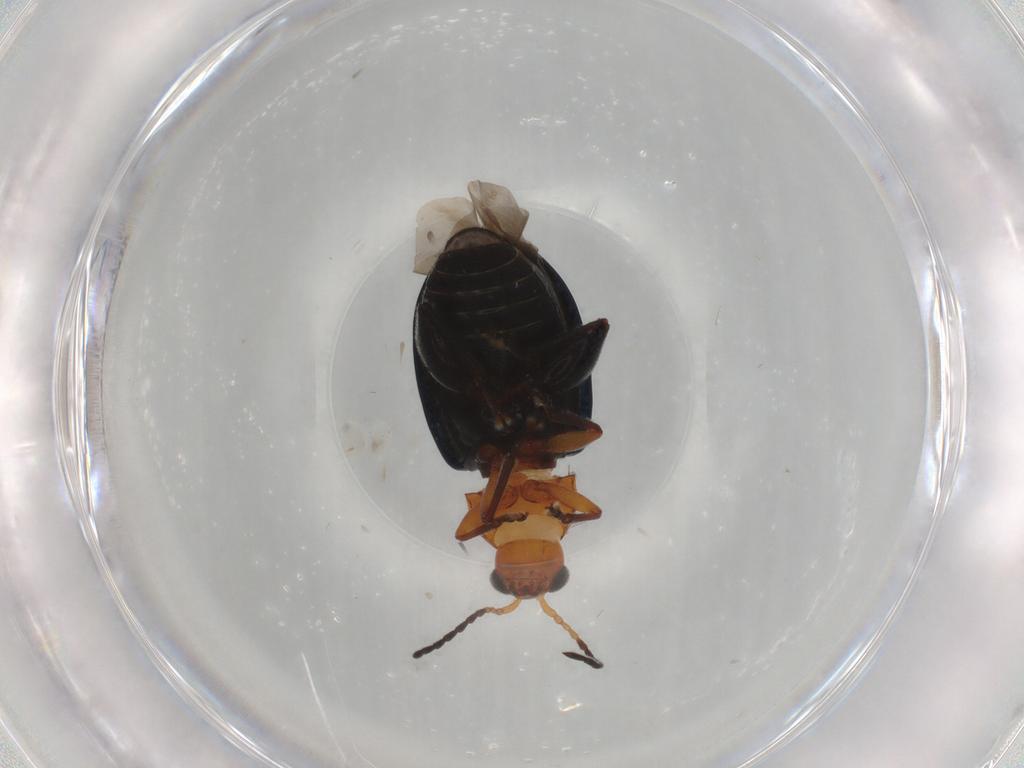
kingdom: Animalia
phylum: Arthropoda
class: Insecta
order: Coleoptera
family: Chrysomelidae
